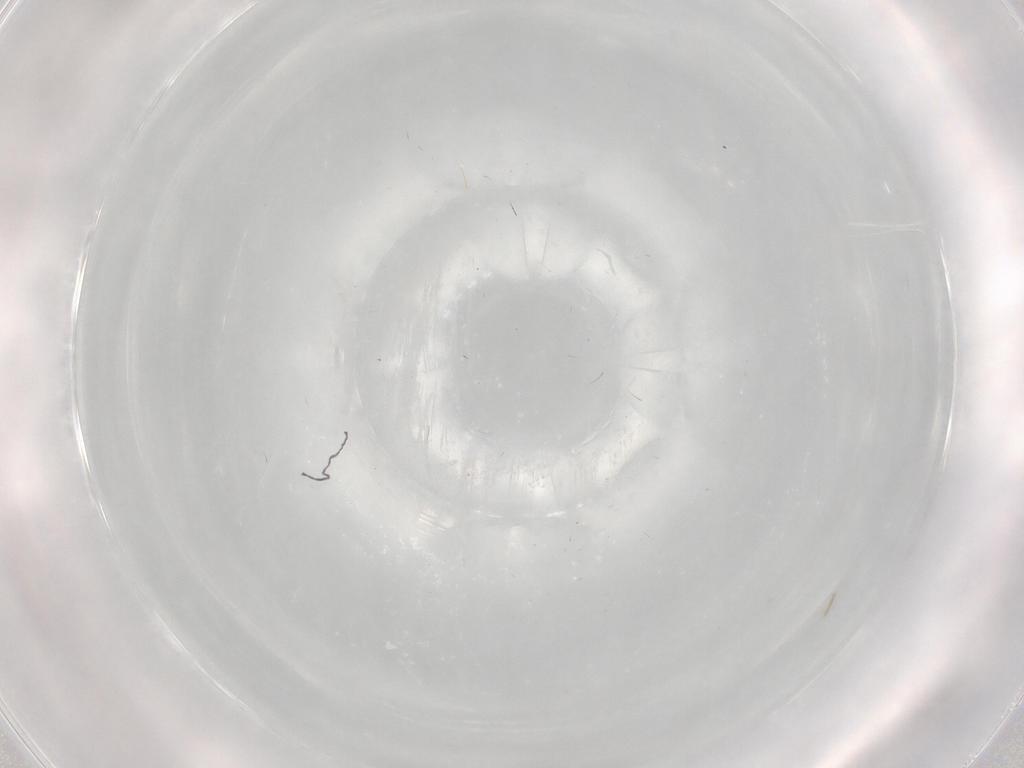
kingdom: Animalia
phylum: Arthropoda
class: Insecta
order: Diptera
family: Hybotidae
